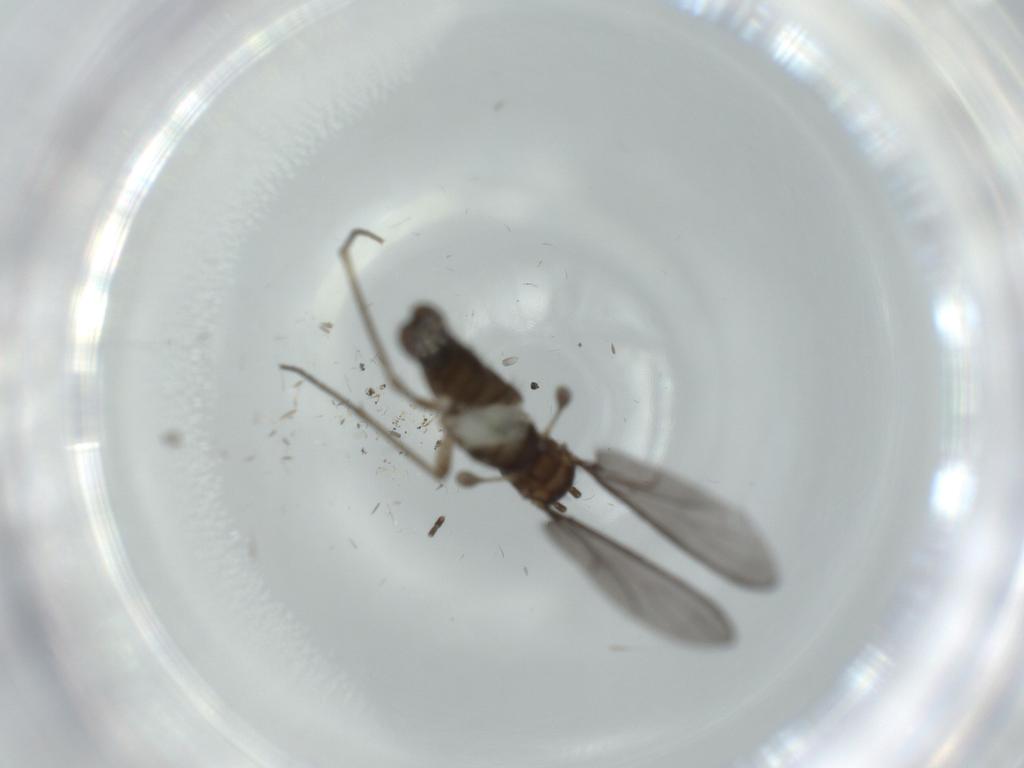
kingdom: Animalia
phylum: Arthropoda
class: Insecta
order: Diptera
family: Sciaridae
